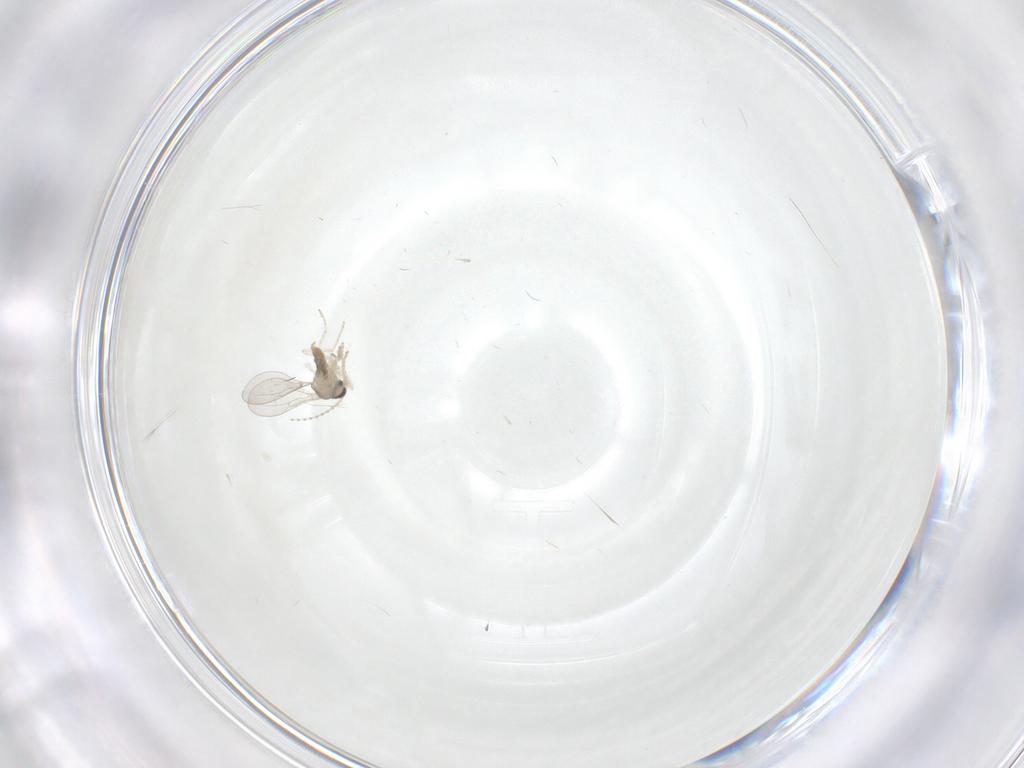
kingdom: Animalia
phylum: Arthropoda
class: Insecta
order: Diptera
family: Cecidomyiidae
